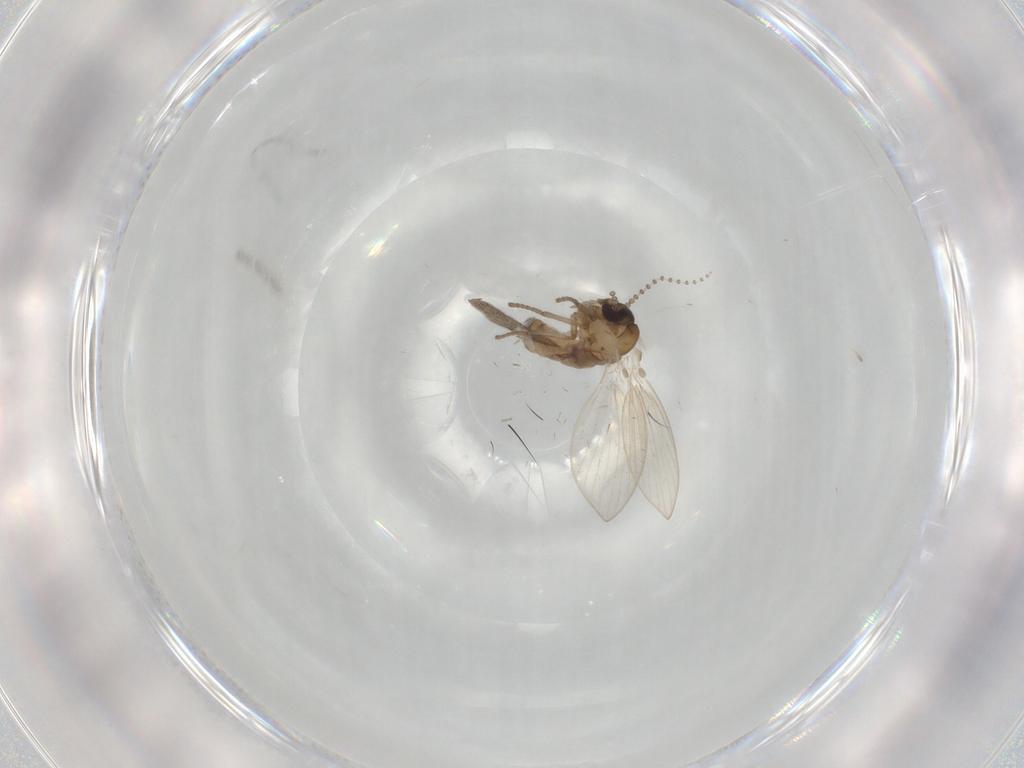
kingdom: Animalia
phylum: Arthropoda
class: Insecta
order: Diptera
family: Psychodidae
